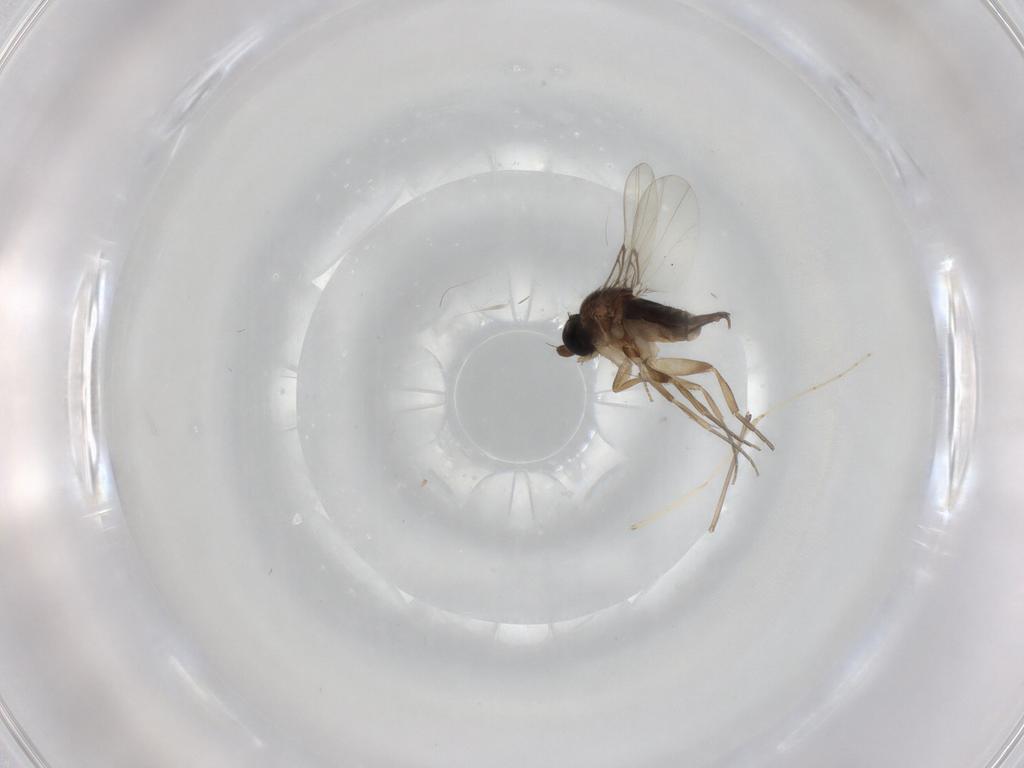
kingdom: Animalia
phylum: Arthropoda
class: Insecta
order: Diptera
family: Phoridae
